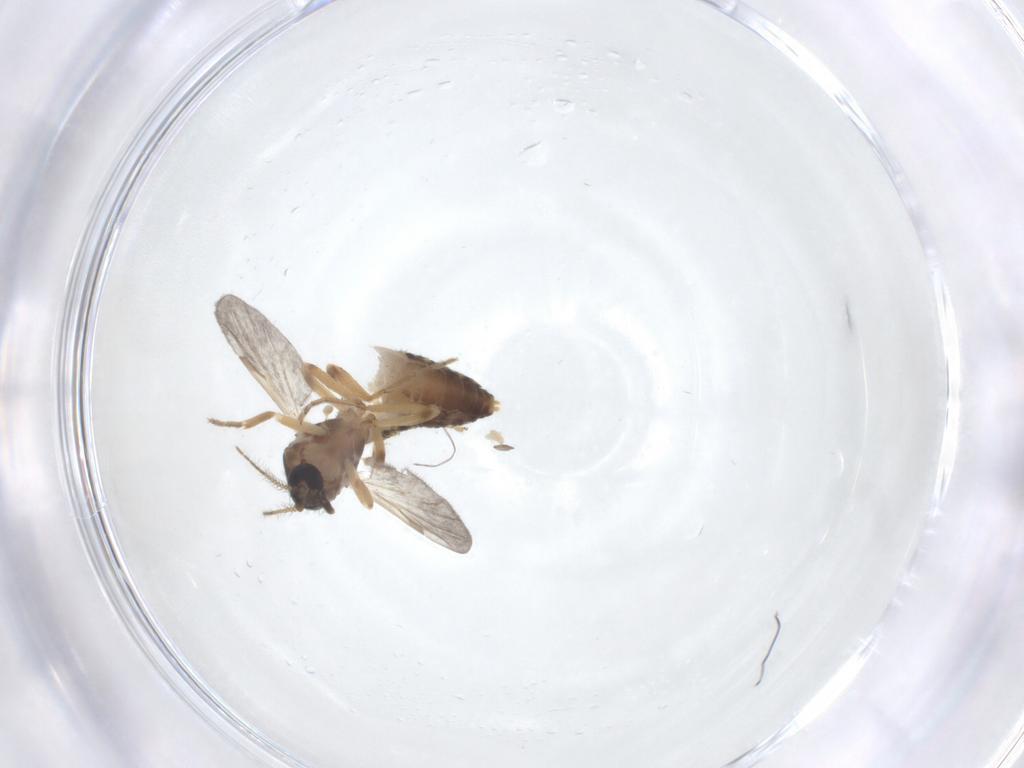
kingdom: Animalia
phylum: Arthropoda
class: Insecta
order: Diptera
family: Ceratopogonidae
